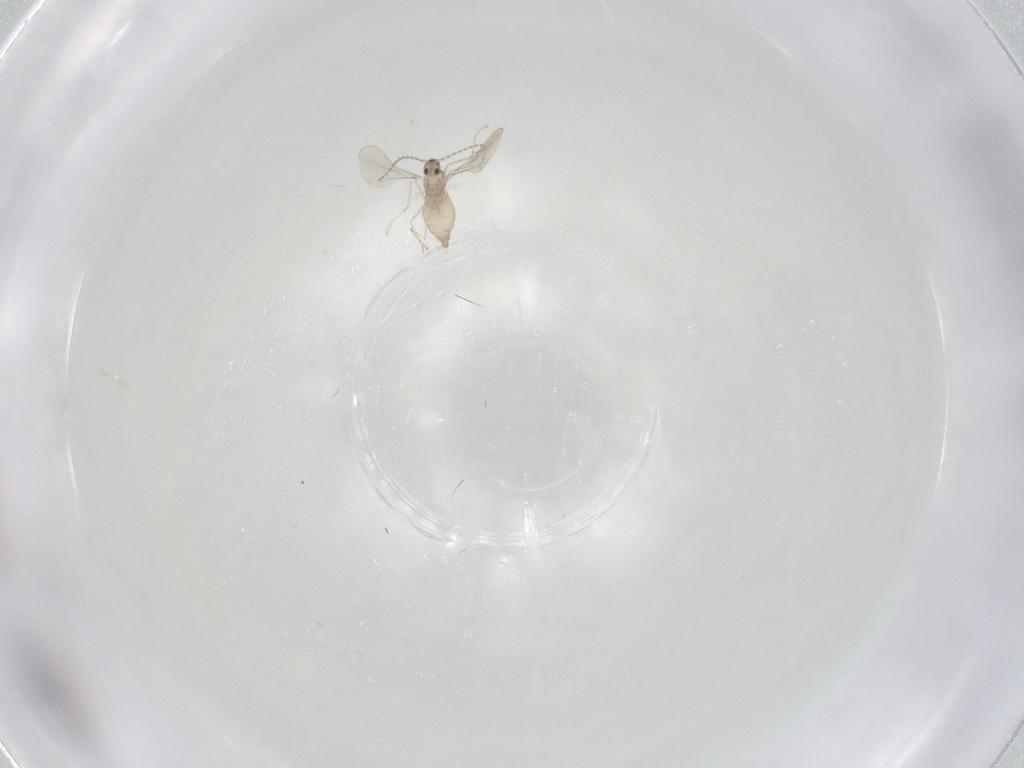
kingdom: Animalia
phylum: Arthropoda
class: Insecta
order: Diptera
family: Cecidomyiidae
